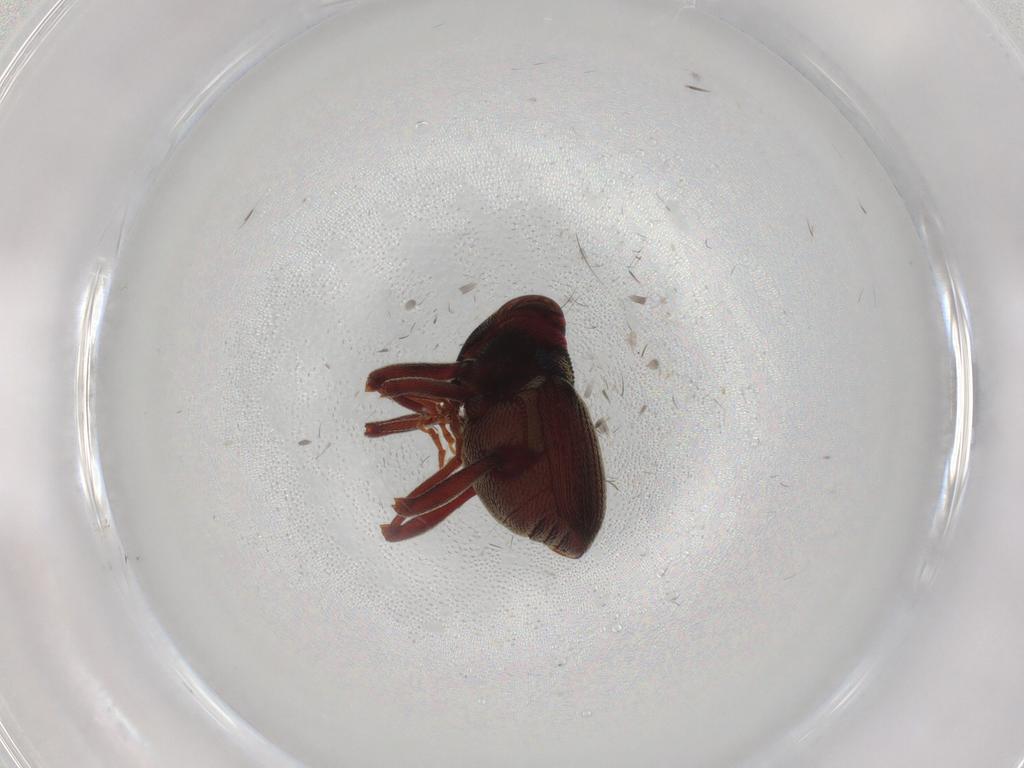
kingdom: Animalia
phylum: Arthropoda
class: Insecta
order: Coleoptera
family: Curculionidae
